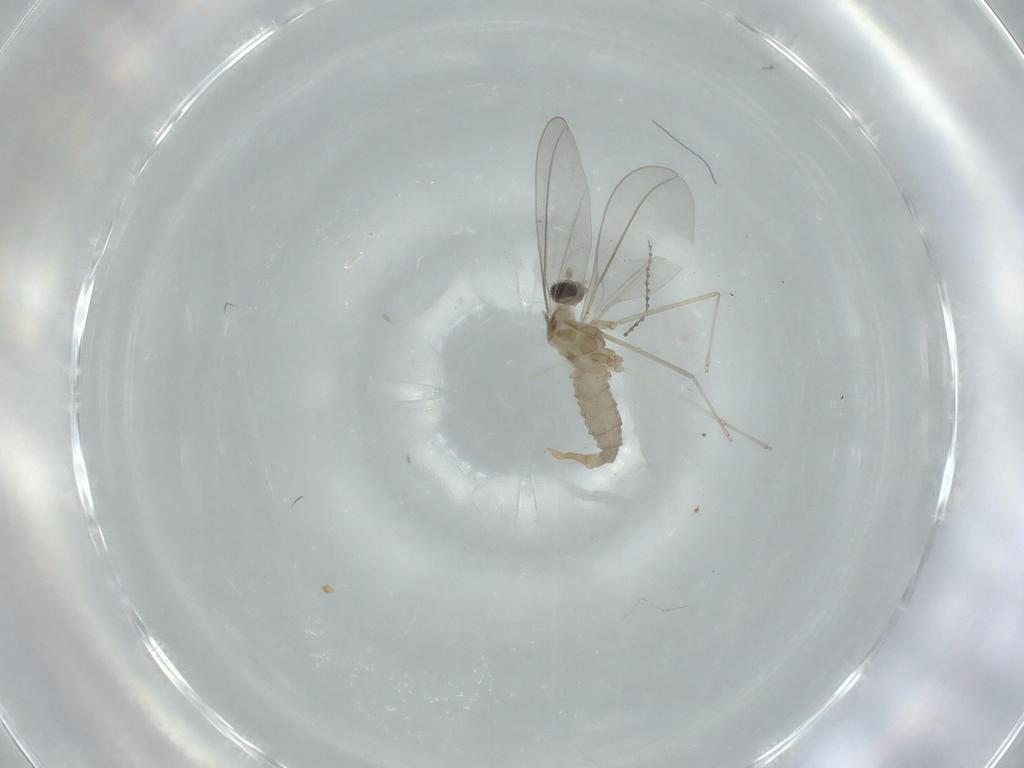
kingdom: Animalia
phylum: Arthropoda
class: Insecta
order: Diptera
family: Cecidomyiidae
